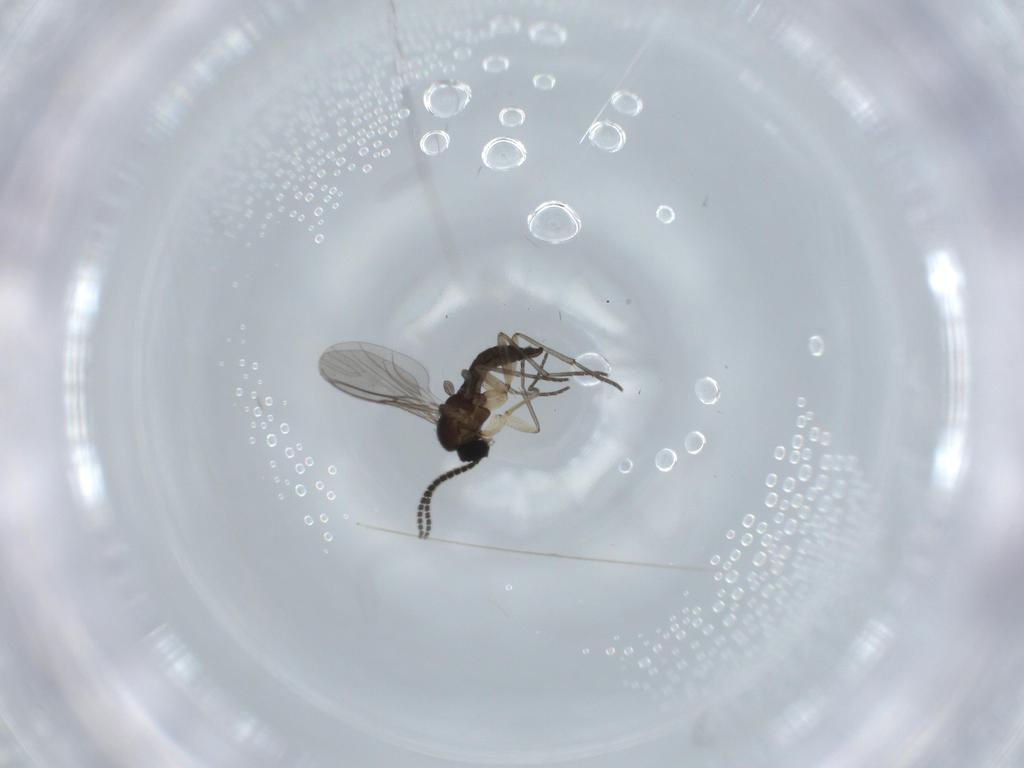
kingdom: Animalia
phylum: Arthropoda
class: Insecta
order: Diptera
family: Sciaridae
